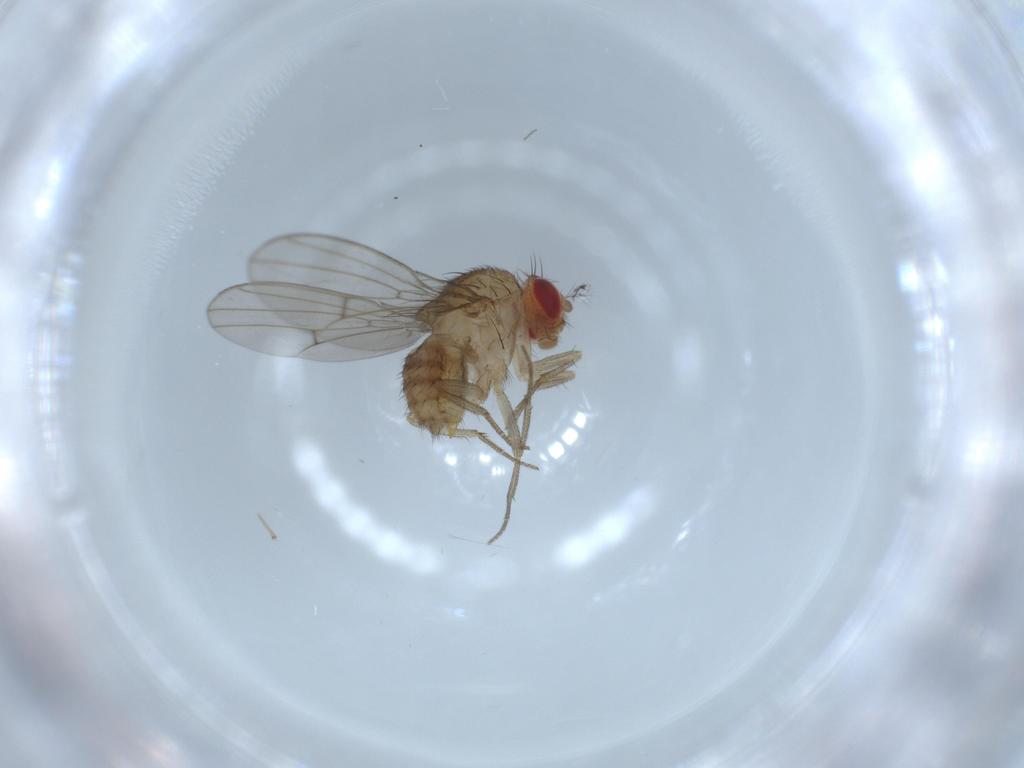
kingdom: Animalia
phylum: Arthropoda
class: Insecta
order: Diptera
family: Drosophilidae
